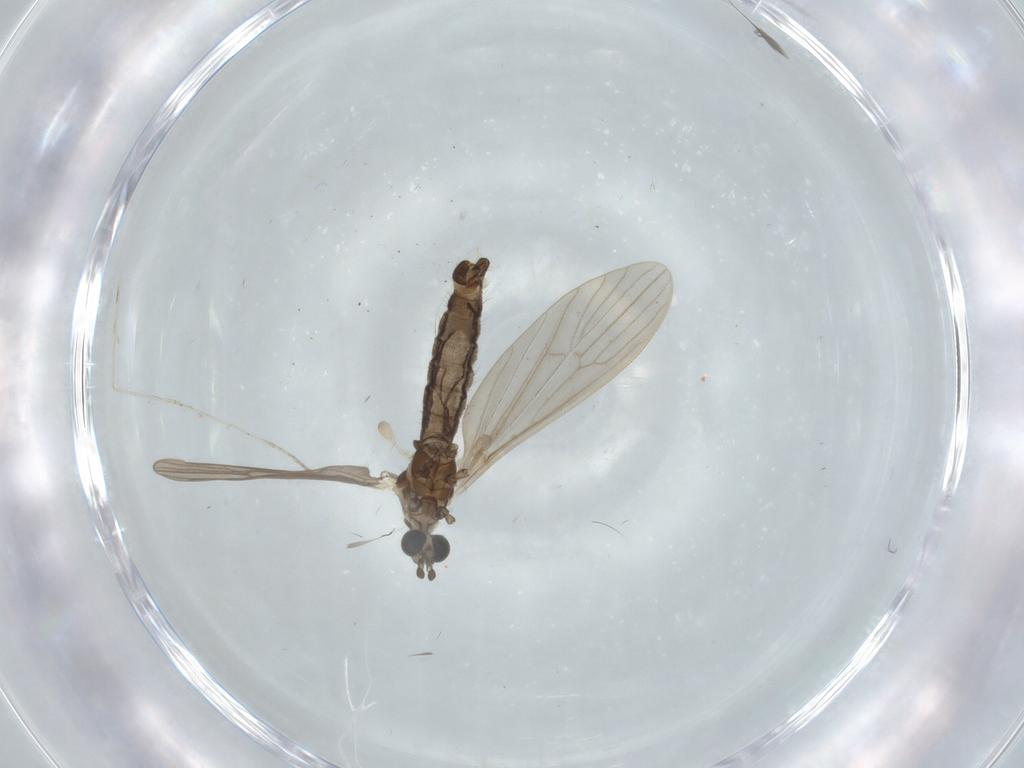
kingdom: Animalia
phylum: Arthropoda
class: Insecta
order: Diptera
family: Limoniidae
